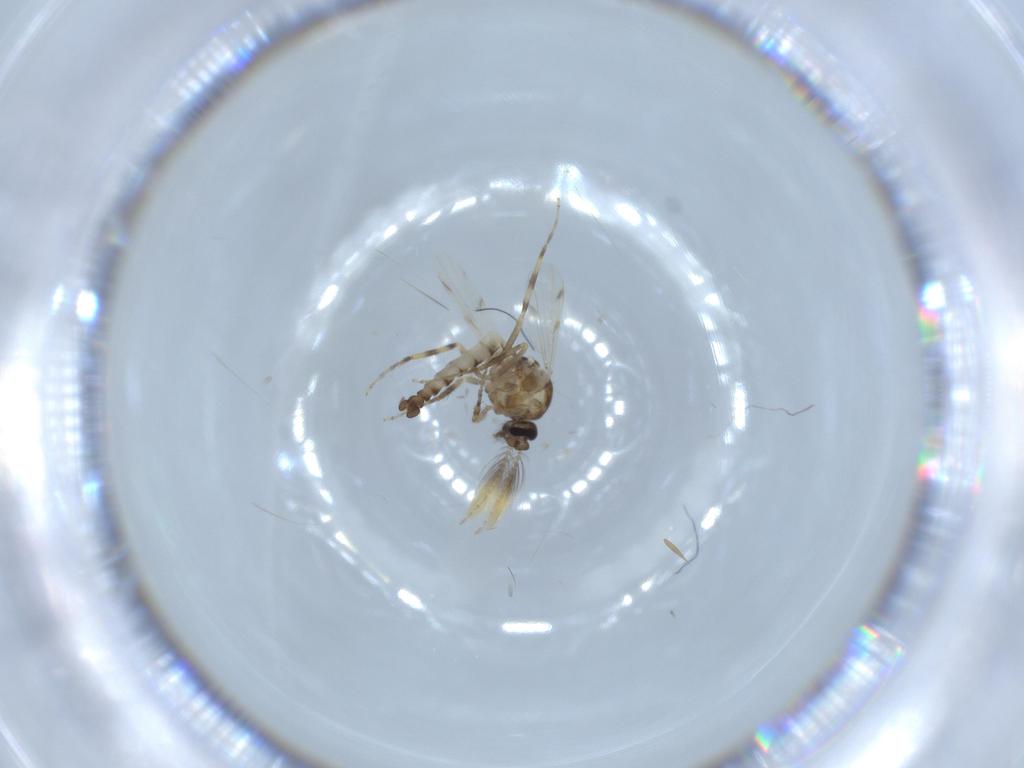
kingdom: Animalia
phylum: Arthropoda
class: Insecta
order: Diptera
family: Ceratopogonidae
